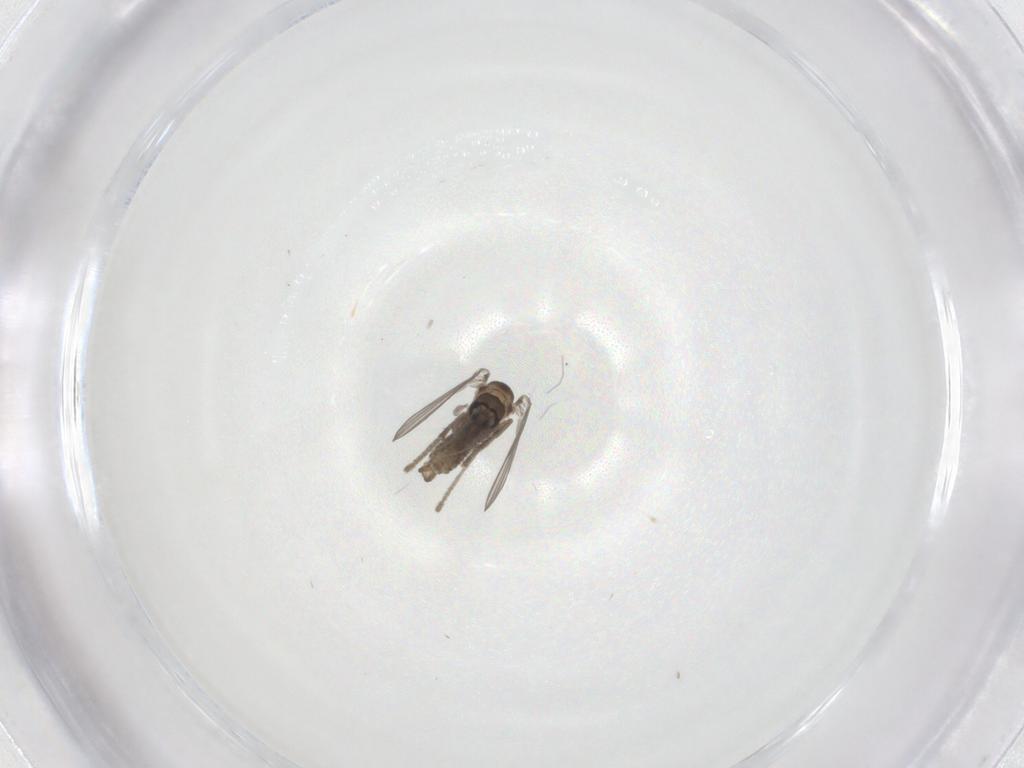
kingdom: Animalia
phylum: Arthropoda
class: Insecta
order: Diptera
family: Psychodidae
